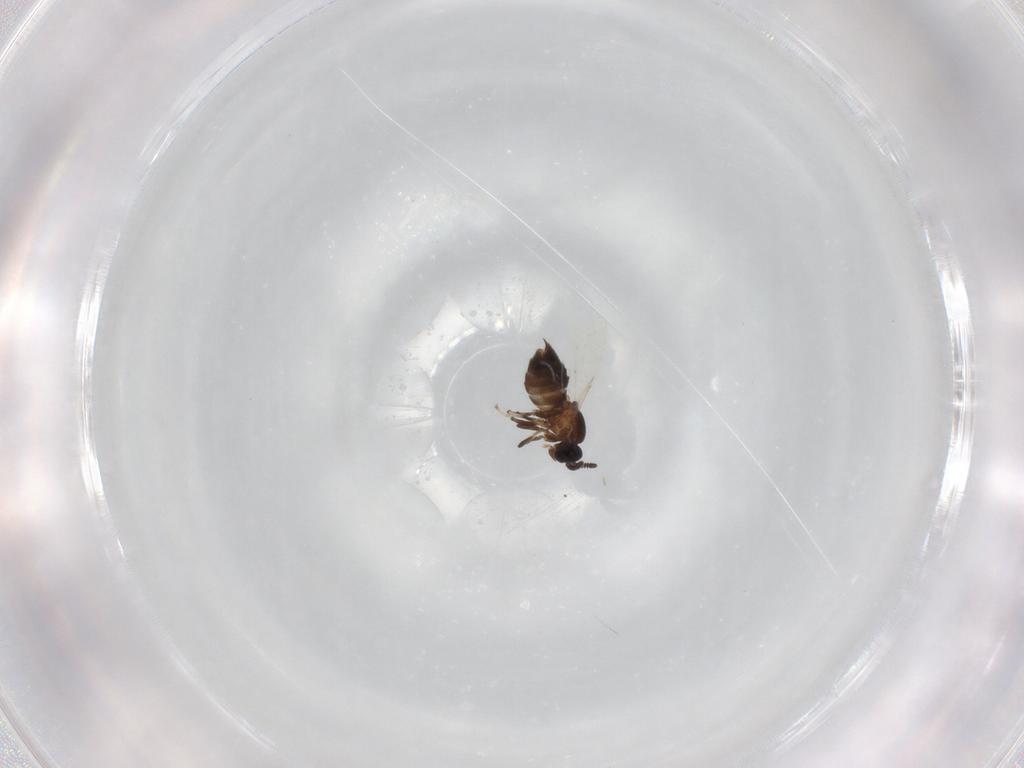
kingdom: Animalia
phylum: Arthropoda
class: Insecta
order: Diptera
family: Scatopsidae
